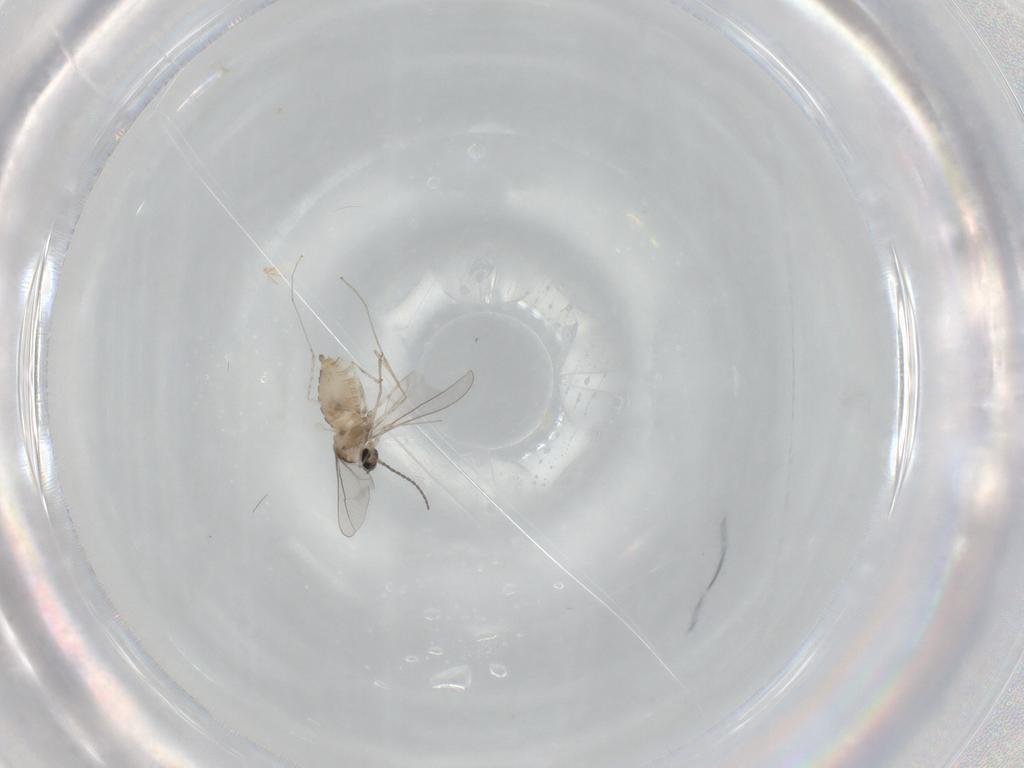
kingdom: Animalia
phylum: Arthropoda
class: Insecta
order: Diptera
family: Cecidomyiidae
